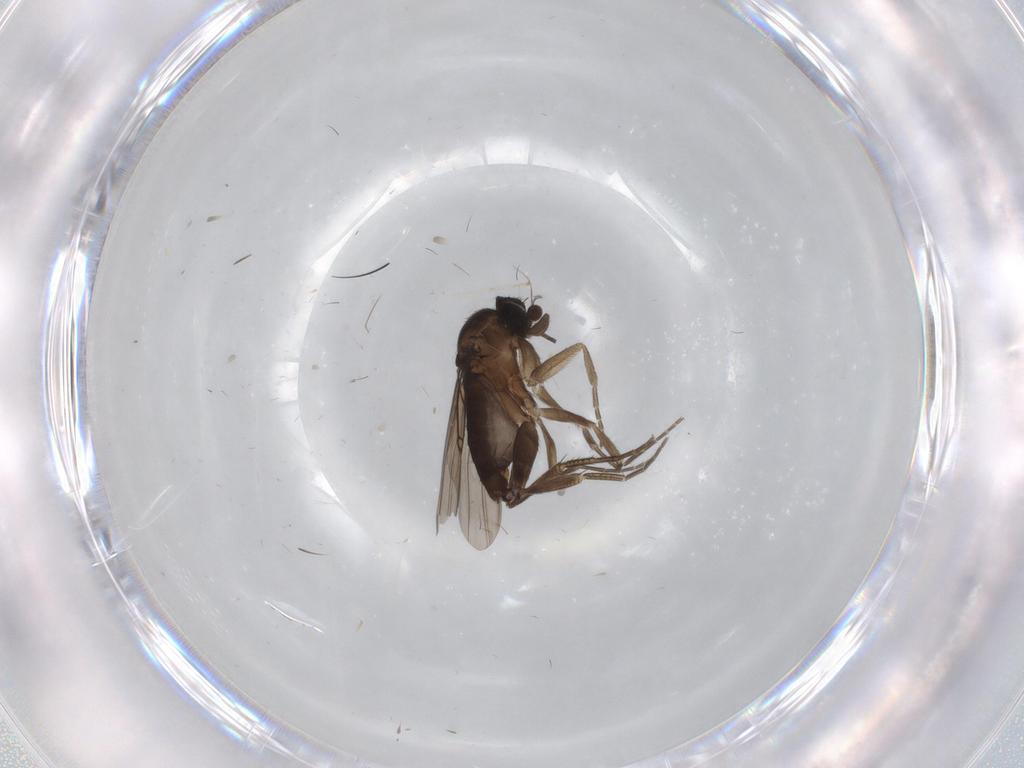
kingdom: Animalia
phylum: Arthropoda
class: Insecta
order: Diptera
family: Phoridae
